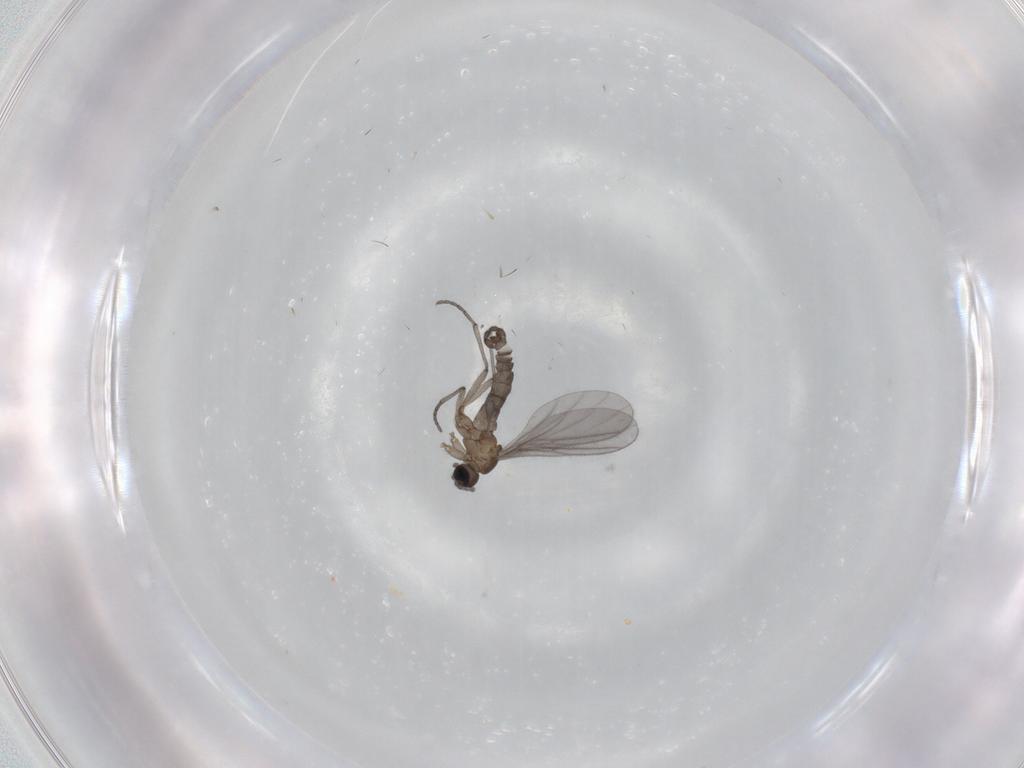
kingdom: Animalia
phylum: Arthropoda
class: Insecta
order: Diptera
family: Sciaridae
